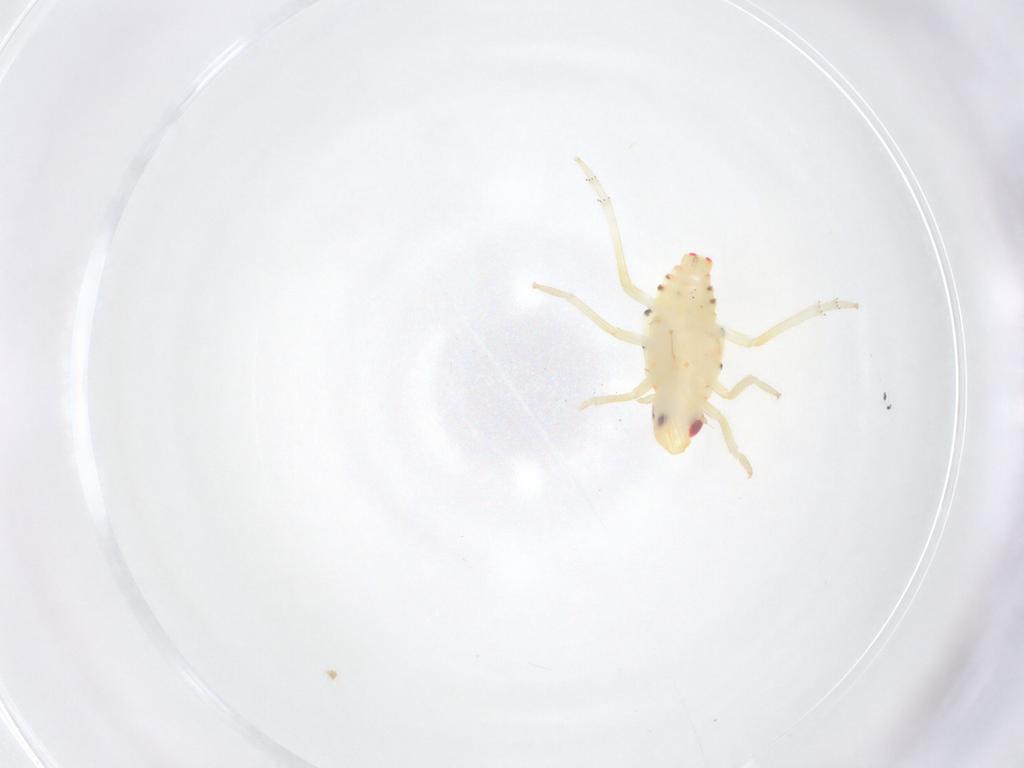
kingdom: Animalia
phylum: Arthropoda
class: Insecta
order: Hemiptera
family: Tropiduchidae
